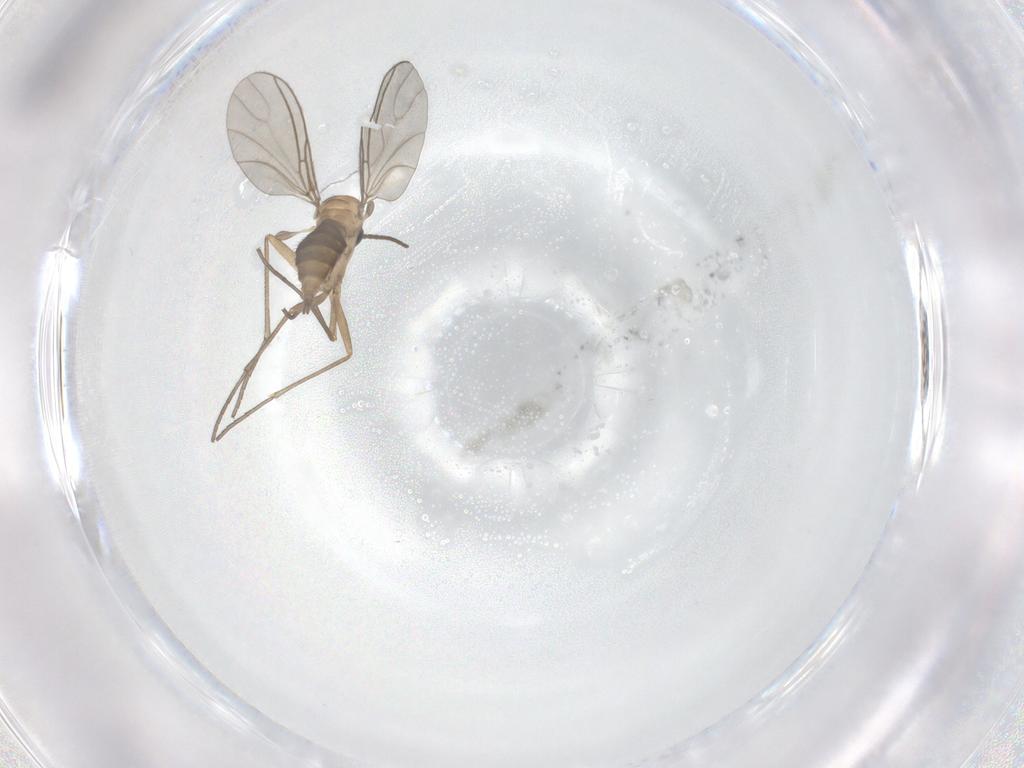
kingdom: Animalia
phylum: Arthropoda
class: Insecta
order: Diptera
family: Sciaridae
